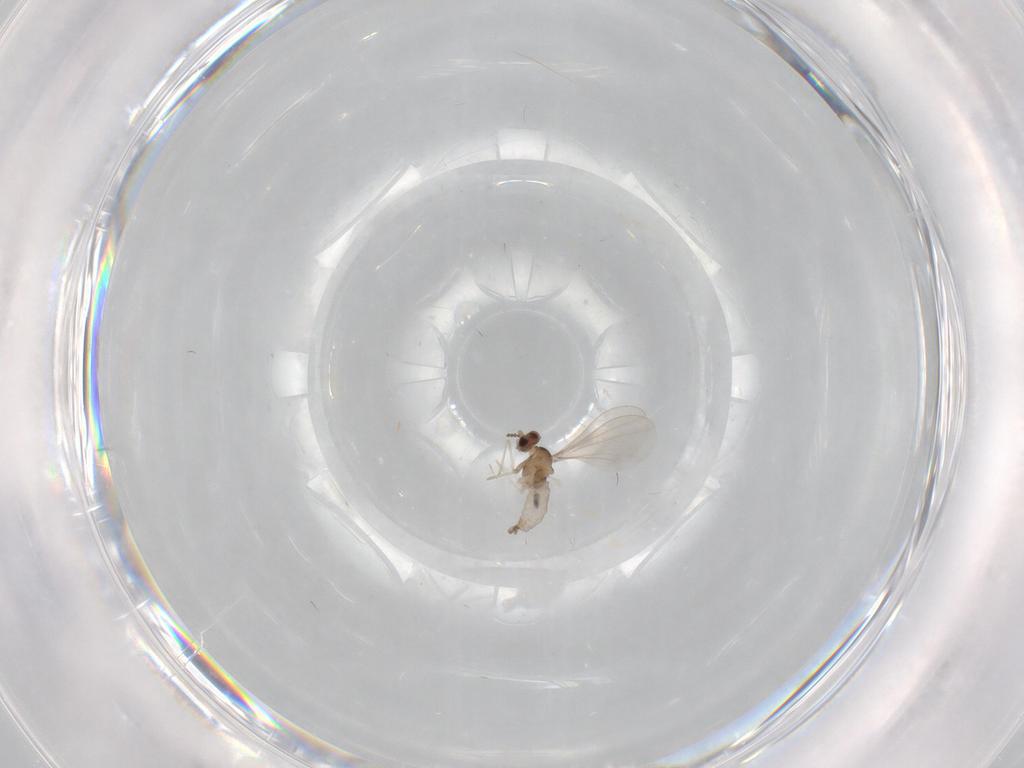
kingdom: Animalia
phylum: Arthropoda
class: Insecta
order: Diptera
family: Cecidomyiidae
